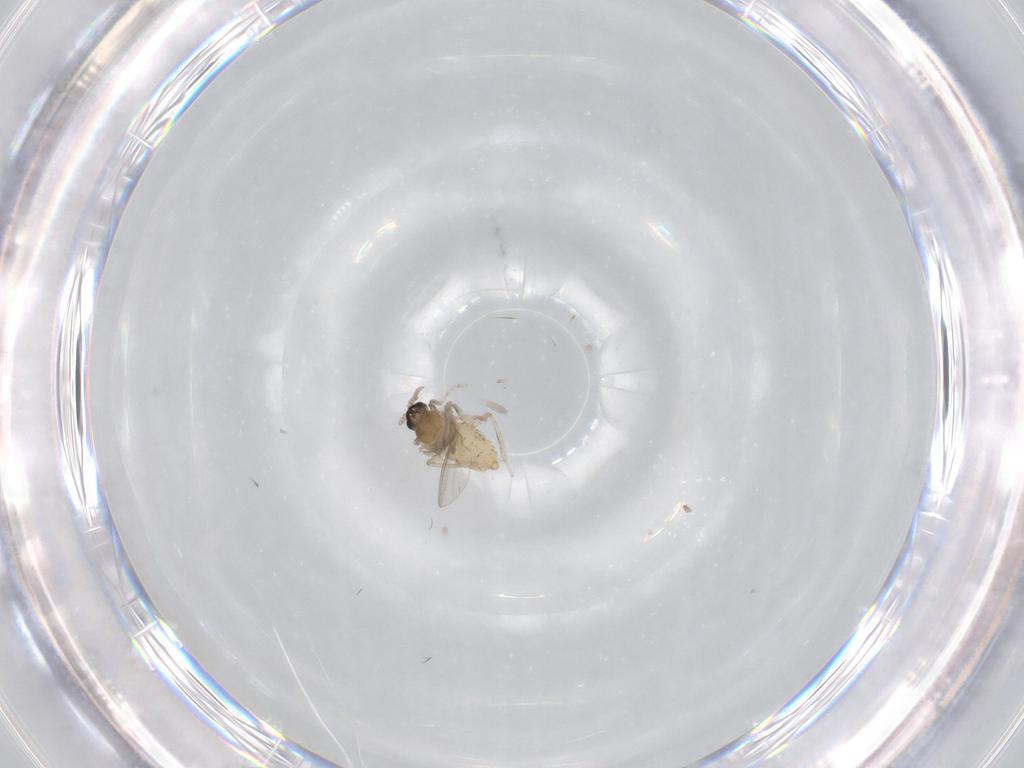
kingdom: Animalia
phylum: Arthropoda
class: Insecta
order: Diptera
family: Cecidomyiidae
